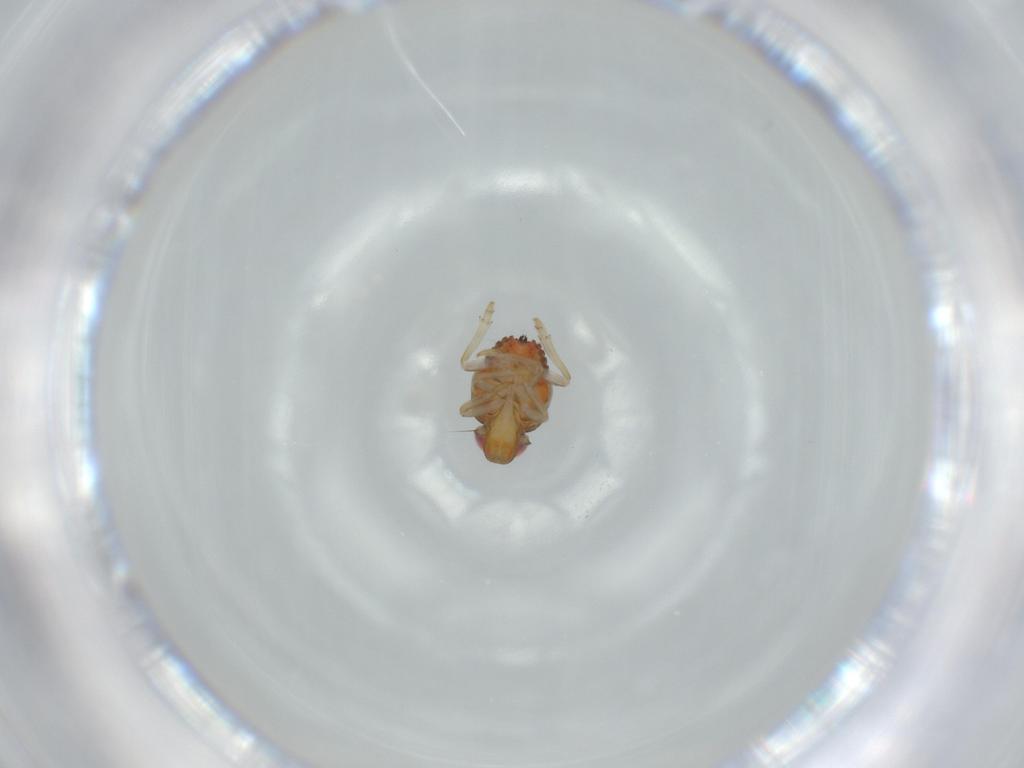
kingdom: Animalia
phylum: Arthropoda
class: Insecta
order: Hemiptera
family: Issidae
